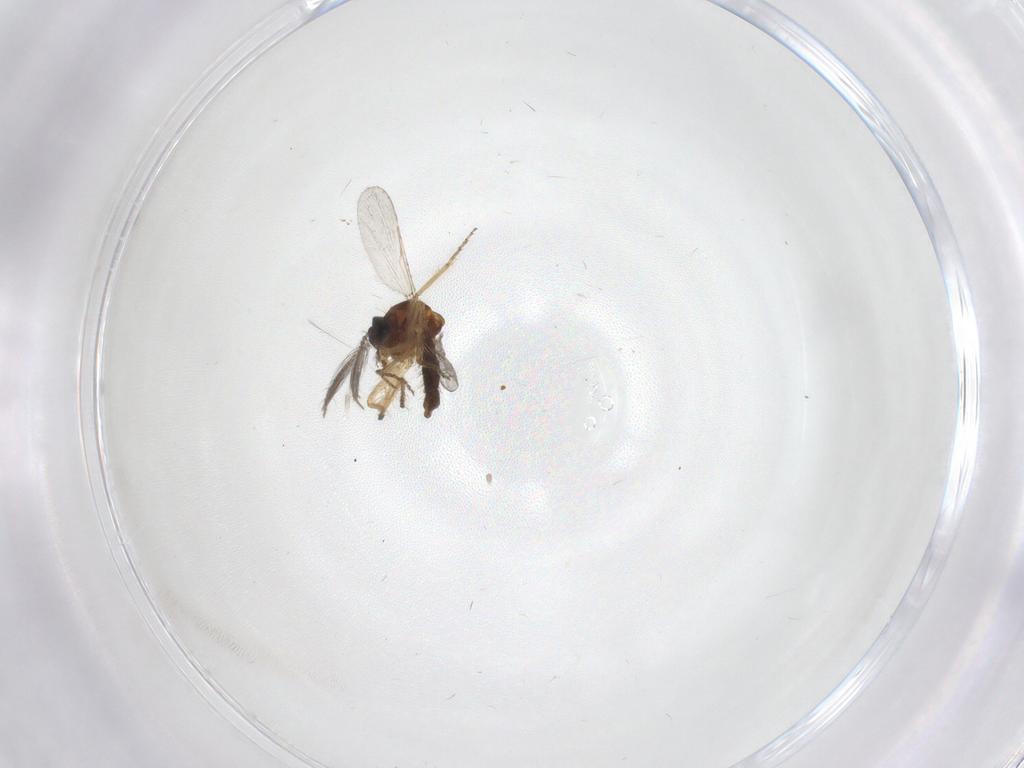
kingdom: Animalia
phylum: Arthropoda
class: Insecta
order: Diptera
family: Ceratopogonidae
